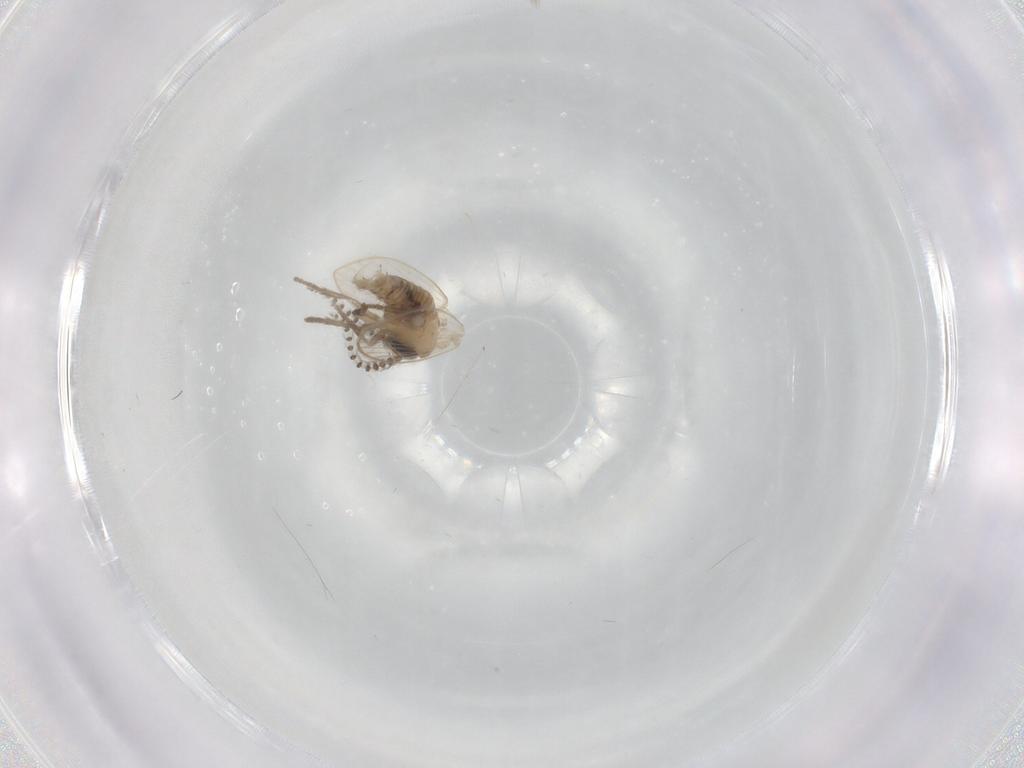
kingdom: Animalia
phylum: Arthropoda
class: Insecta
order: Diptera
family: Psychodidae
